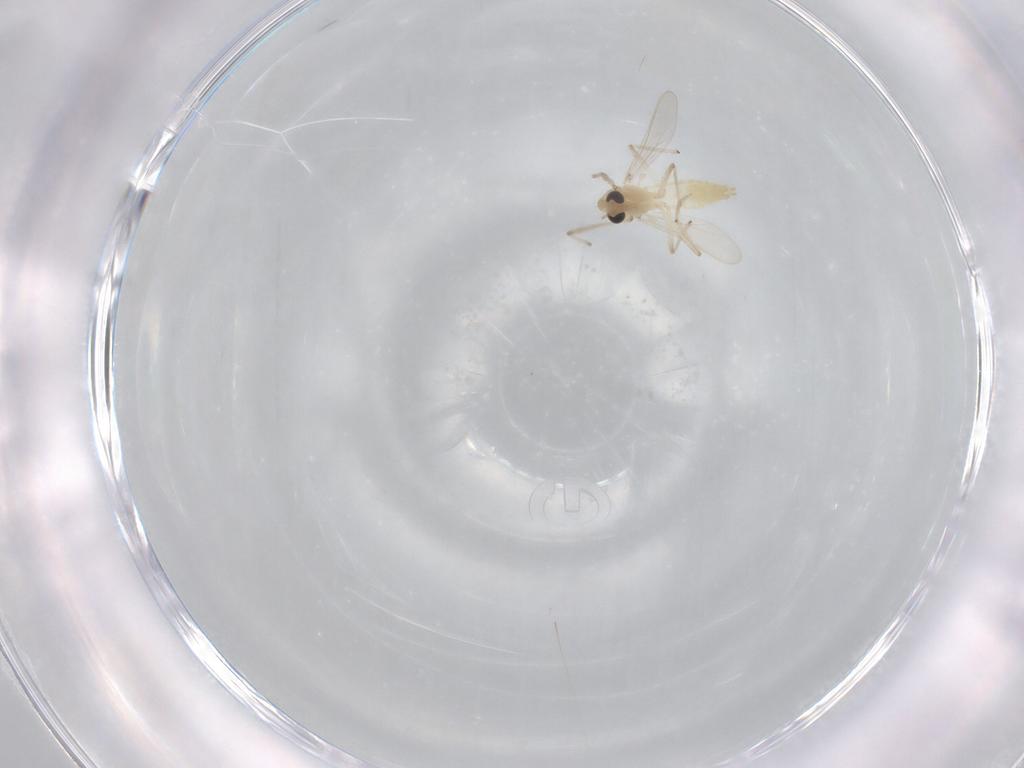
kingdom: Animalia
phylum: Arthropoda
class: Insecta
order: Diptera
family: Chironomidae
